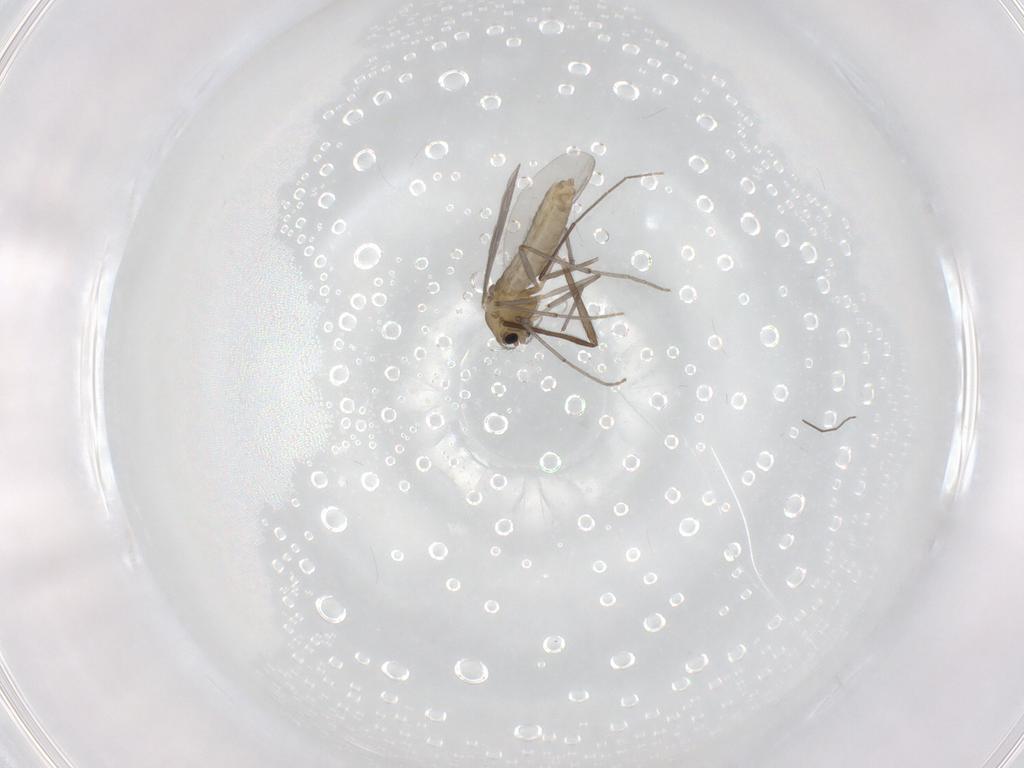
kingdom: Animalia
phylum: Arthropoda
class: Insecta
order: Diptera
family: Chironomidae
